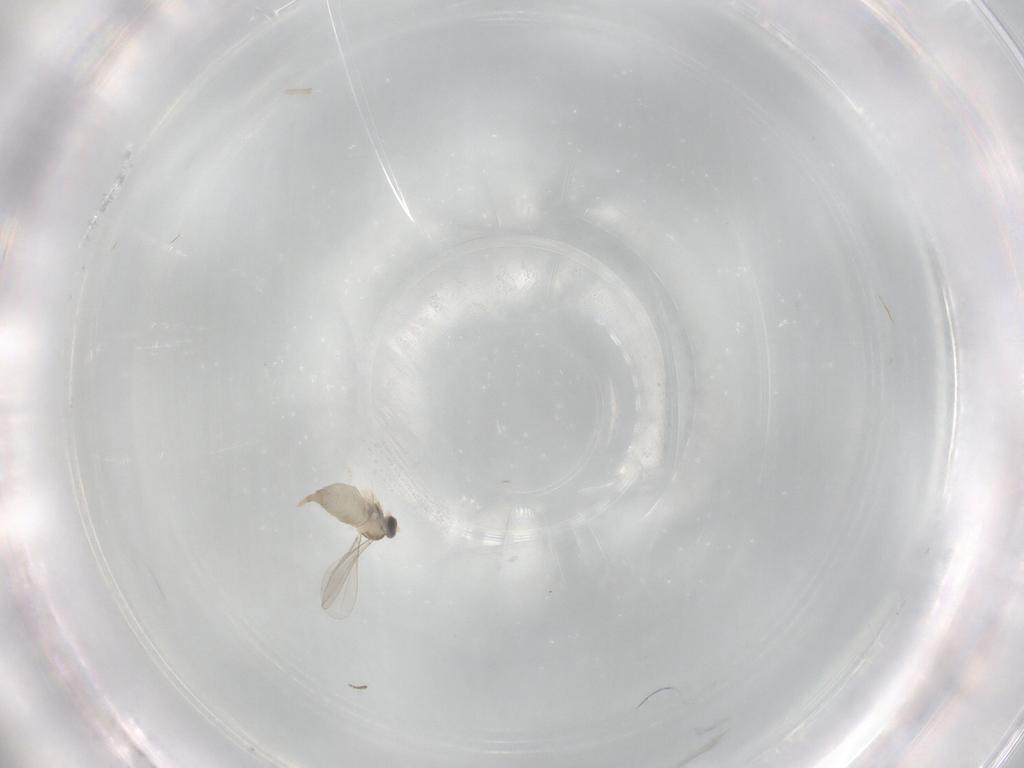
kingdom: Animalia
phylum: Arthropoda
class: Insecta
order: Diptera
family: Cecidomyiidae
